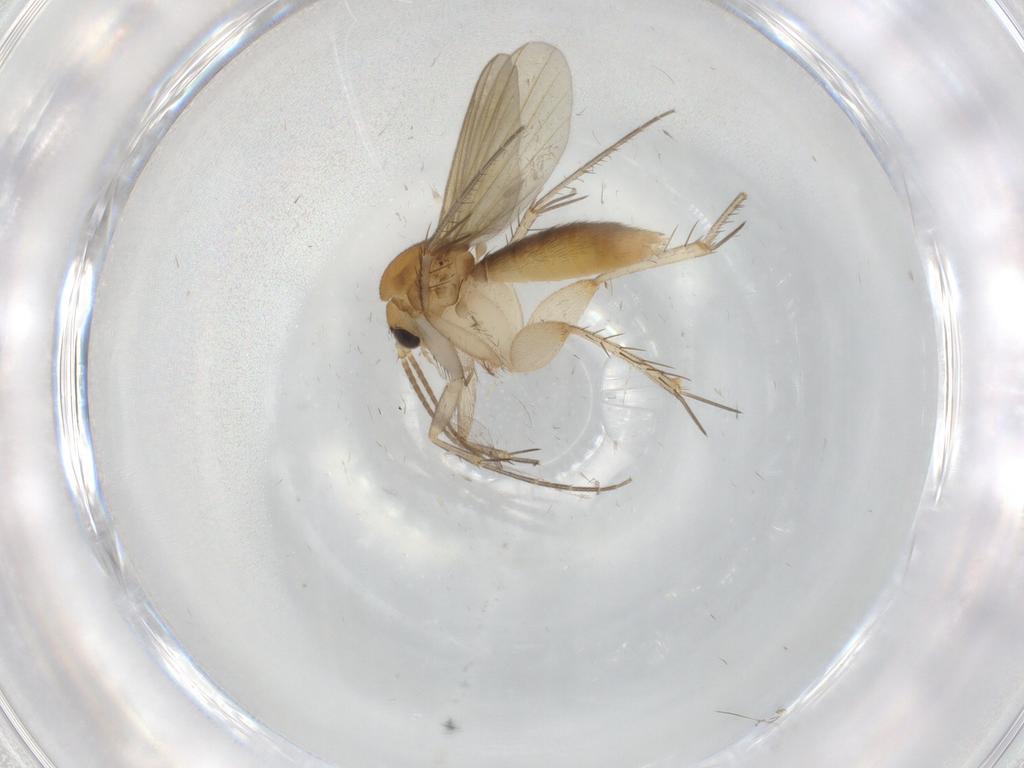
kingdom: Animalia
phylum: Arthropoda
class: Insecta
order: Diptera
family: Mycetophilidae
